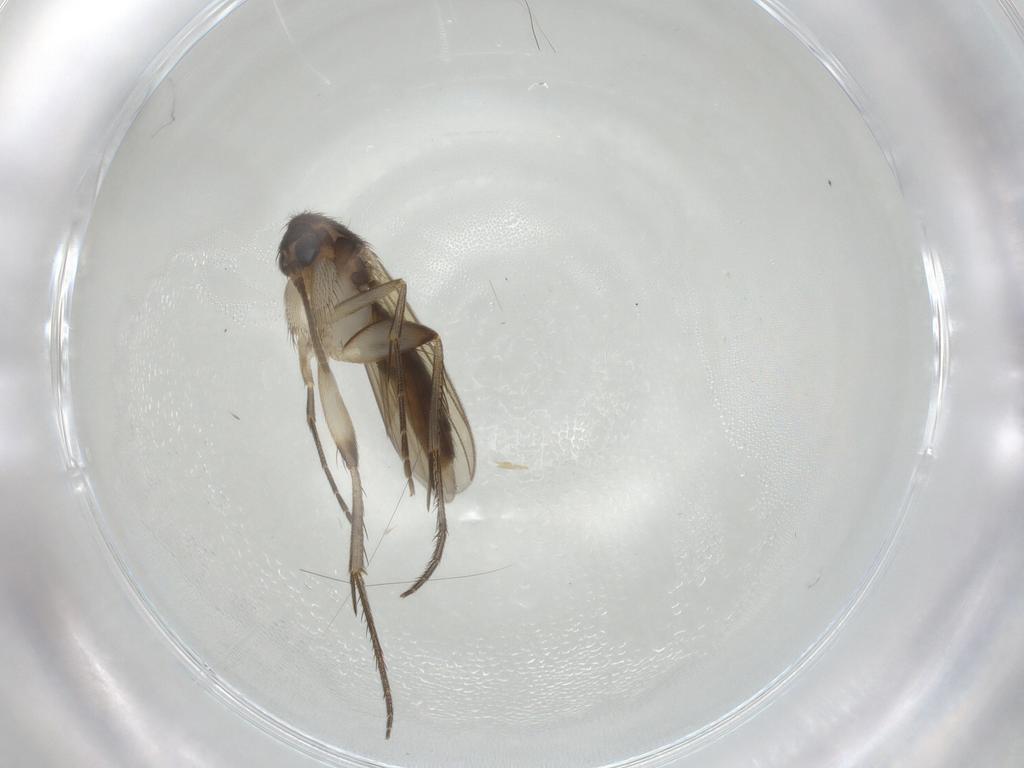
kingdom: Animalia
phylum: Arthropoda
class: Insecta
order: Diptera
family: Mycetophilidae
